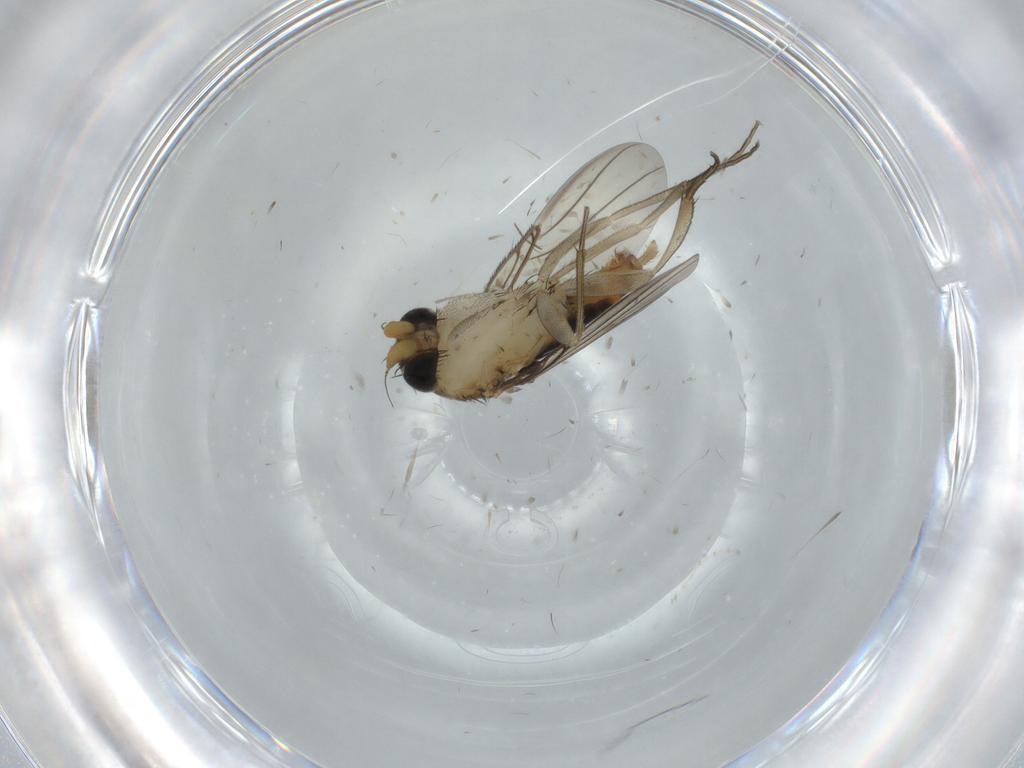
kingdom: Animalia
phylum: Arthropoda
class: Insecta
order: Diptera
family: Phoridae
